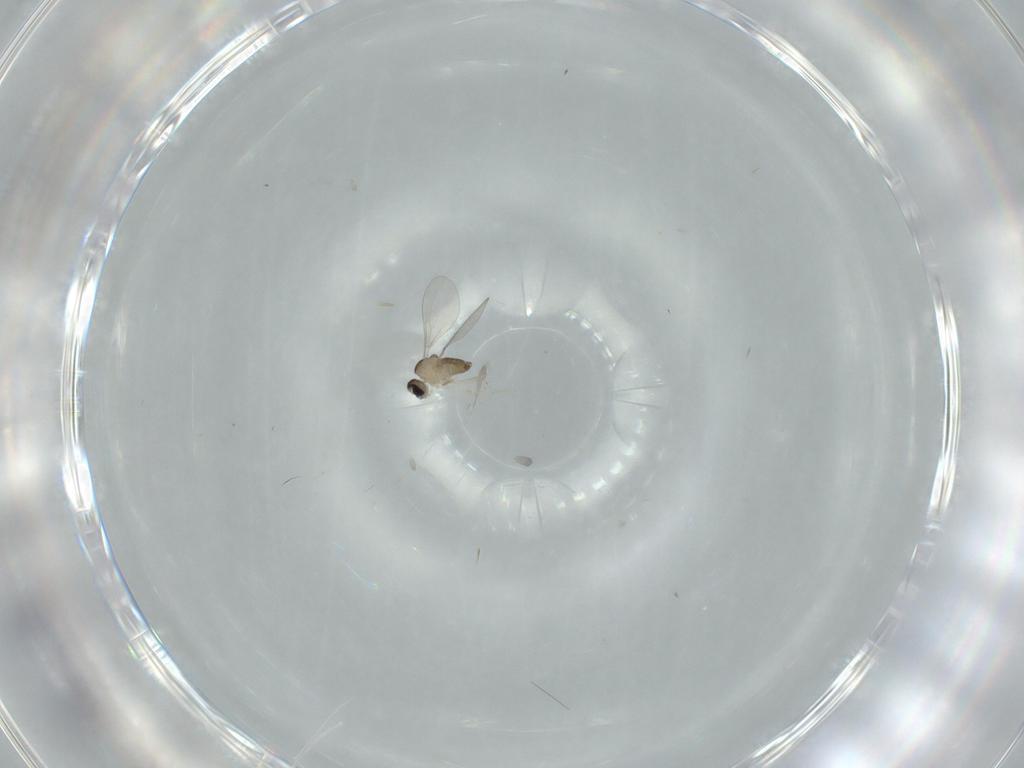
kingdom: Animalia
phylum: Arthropoda
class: Insecta
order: Diptera
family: Cecidomyiidae
